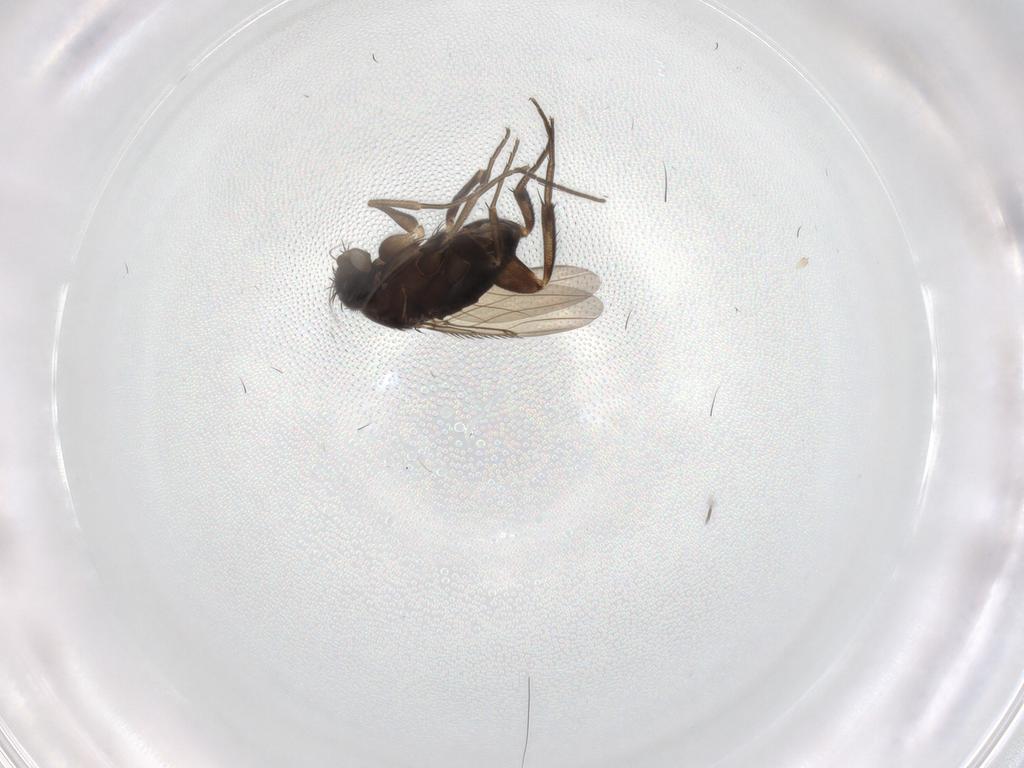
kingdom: Animalia
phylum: Arthropoda
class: Insecta
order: Diptera
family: Phoridae
